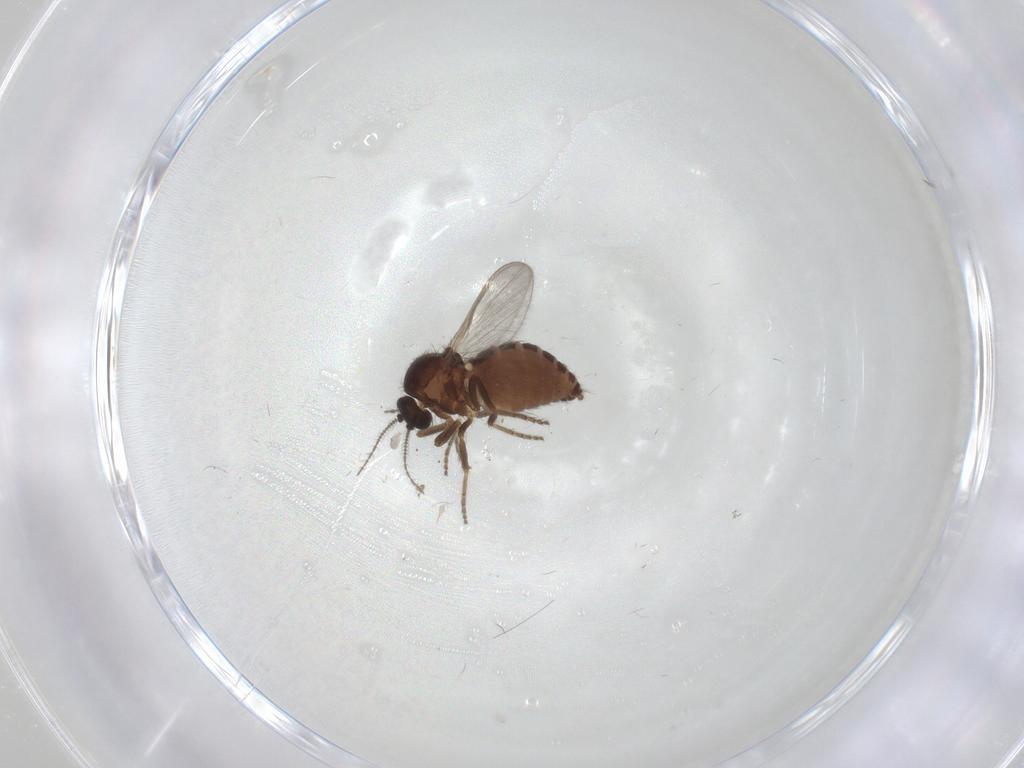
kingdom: Animalia
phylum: Arthropoda
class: Insecta
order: Diptera
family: Ceratopogonidae
